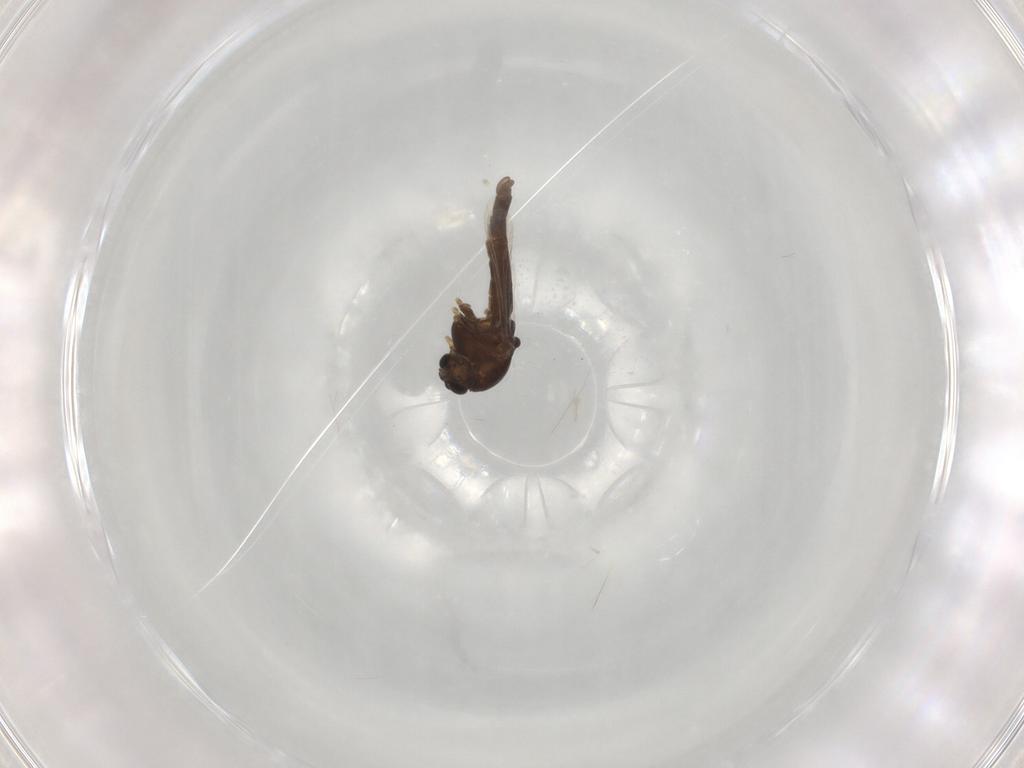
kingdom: Animalia
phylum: Arthropoda
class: Insecta
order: Diptera
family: Chironomidae
